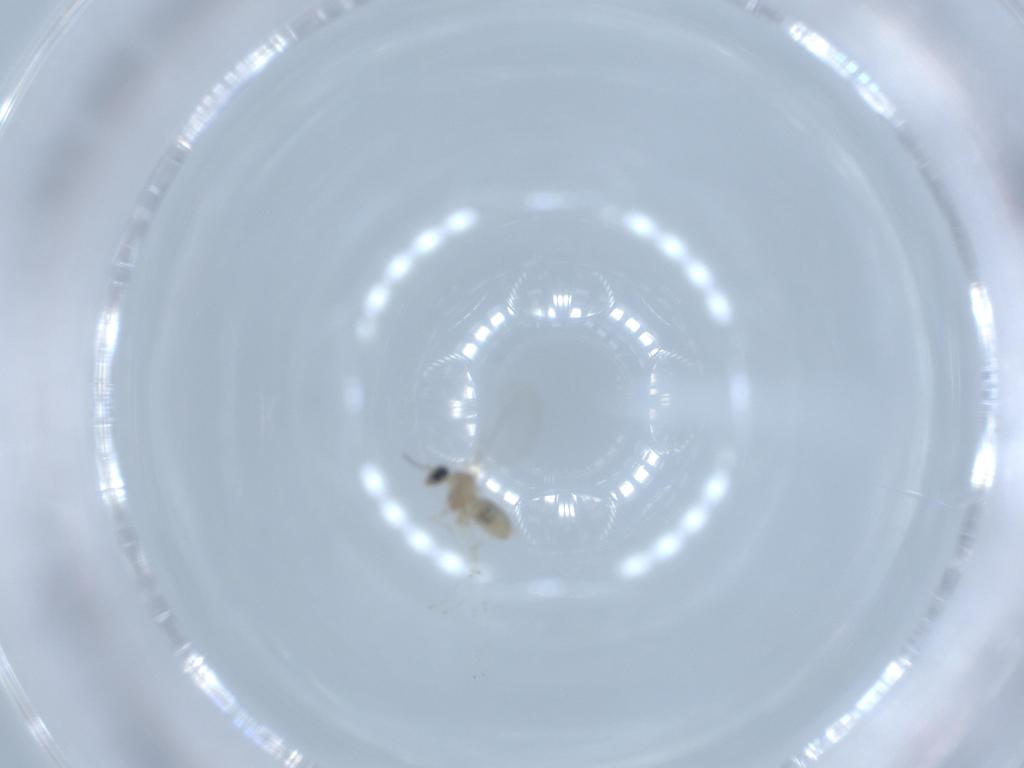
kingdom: Animalia
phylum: Arthropoda
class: Insecta
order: Diptera
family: Cecidomyiidae
